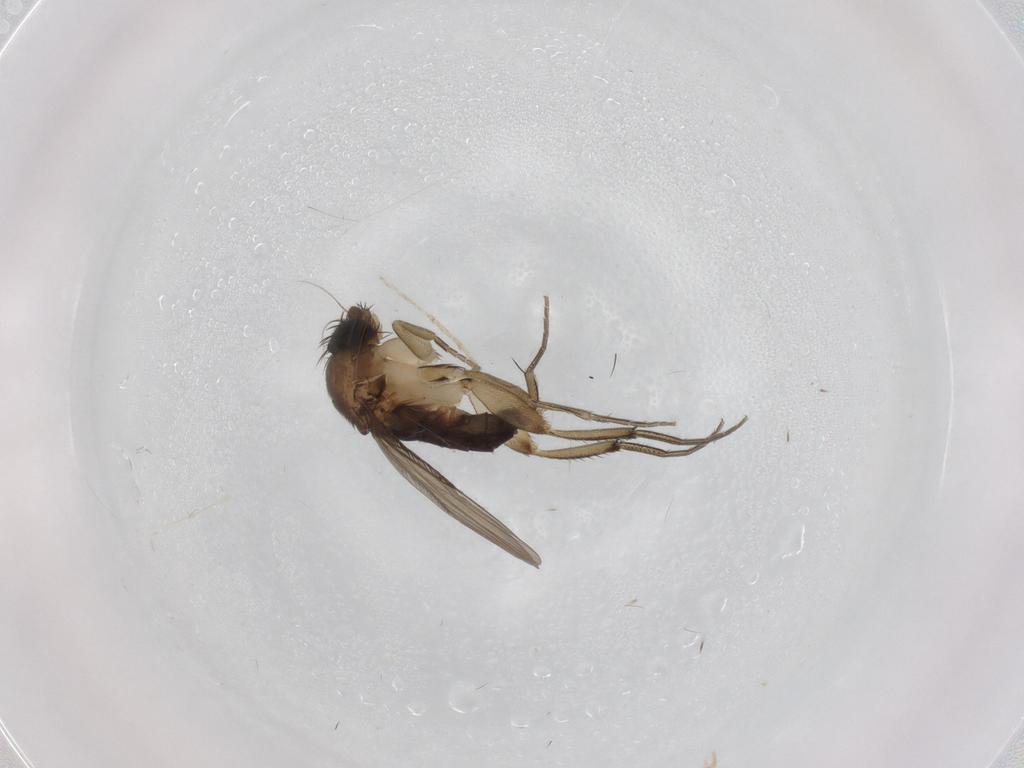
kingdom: Animalia
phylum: Arthropoda
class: Insecta
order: Diptera
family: Phoridae
